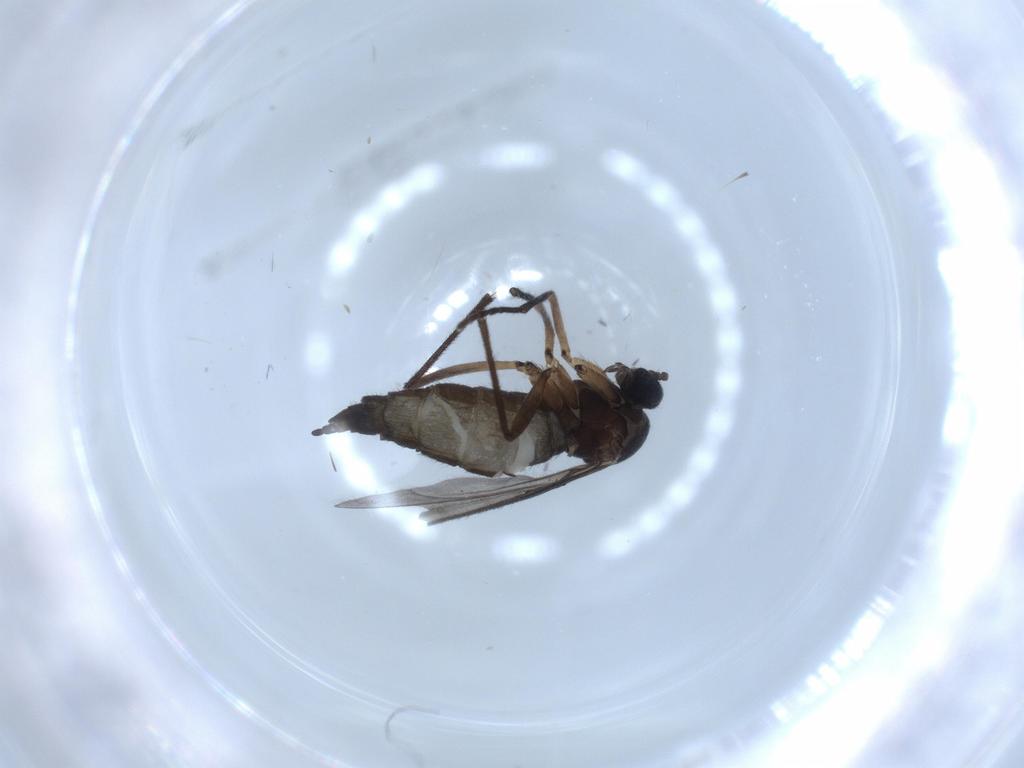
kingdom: Animalia
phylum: Arthropoda
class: Insecta
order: Diptera
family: Sciaridae
